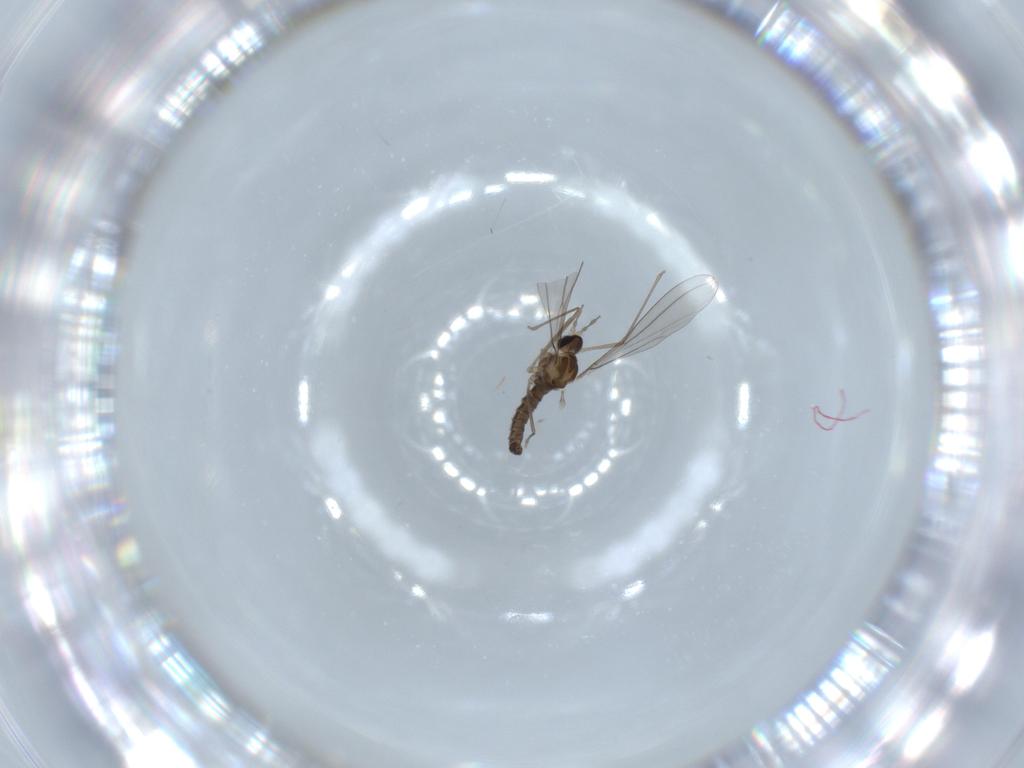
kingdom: Animalia
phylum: Arthropoda
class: Insecta
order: Diptera
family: Cecidomyiidae
